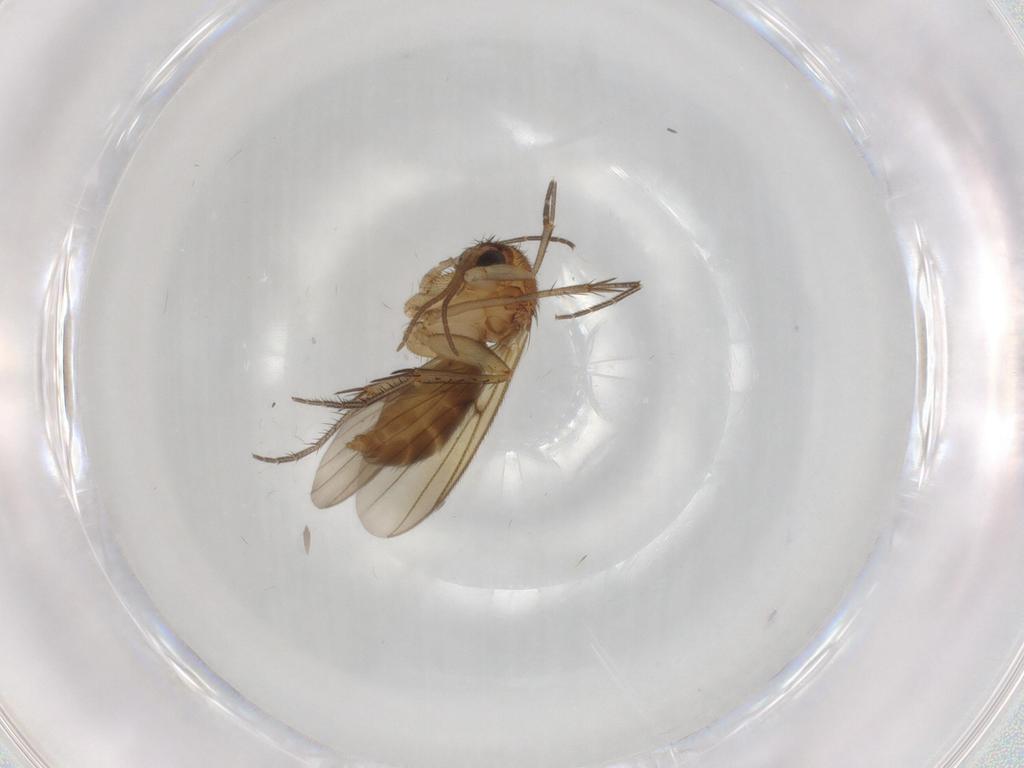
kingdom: Animalia
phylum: Arthropoda
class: Insecta
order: Diptera
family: Mycetophilidae
